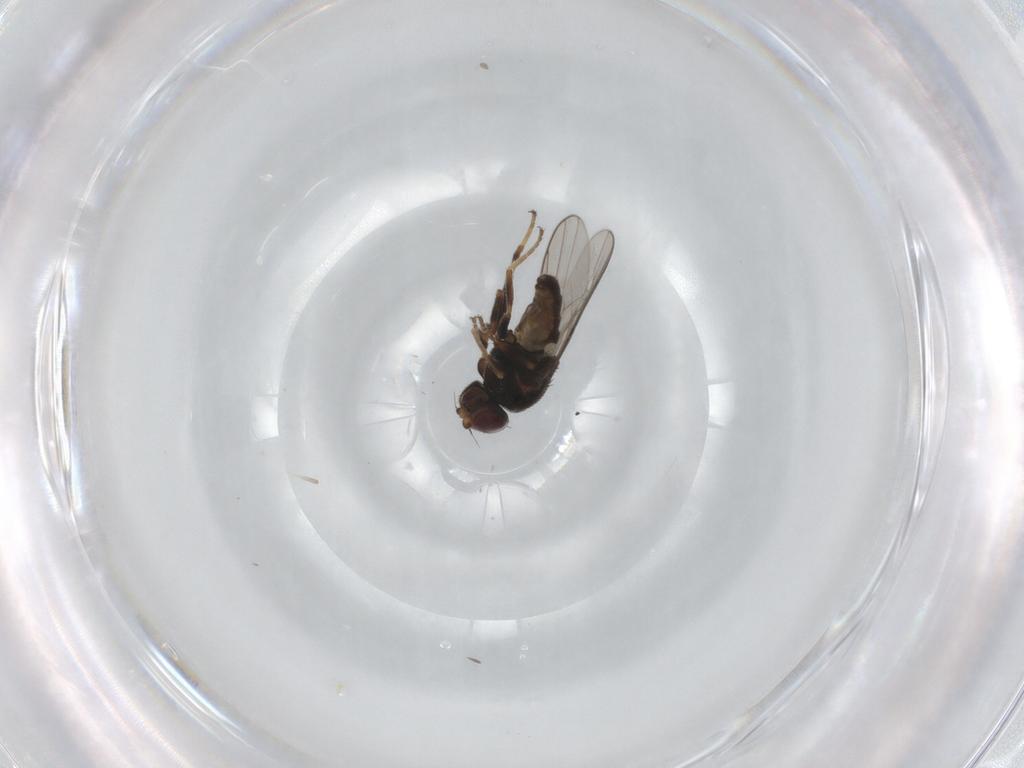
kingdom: Animalia
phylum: Arthropoda
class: Insecta
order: Diptera
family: Chloropidae
